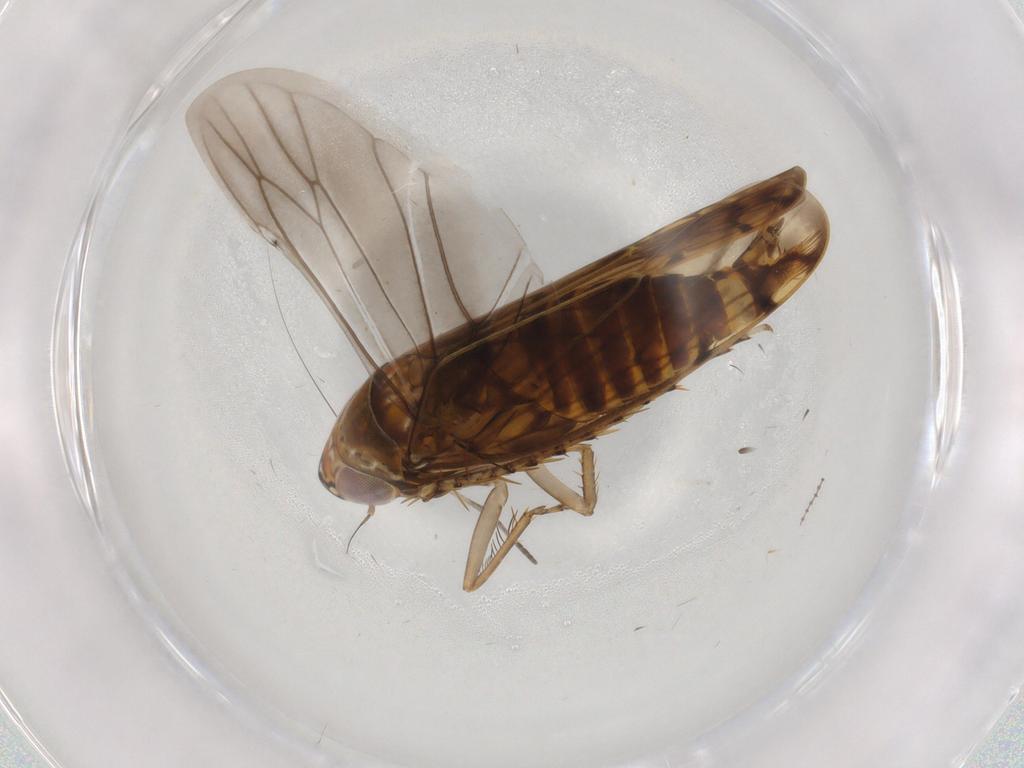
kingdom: Animalia
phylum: Arthropoda
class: Insecta
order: Hemiptera
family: Cicadellidae
